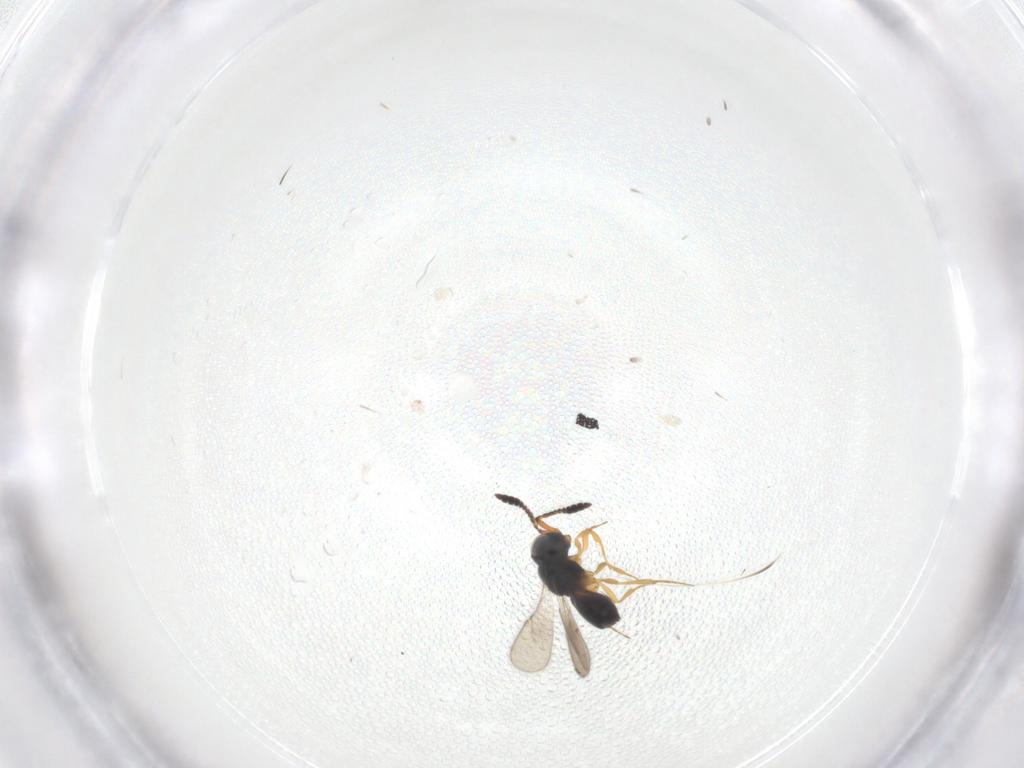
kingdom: Animalia
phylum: Arthropoda
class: Insecta
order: Hymenoptera
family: Scelionidae
